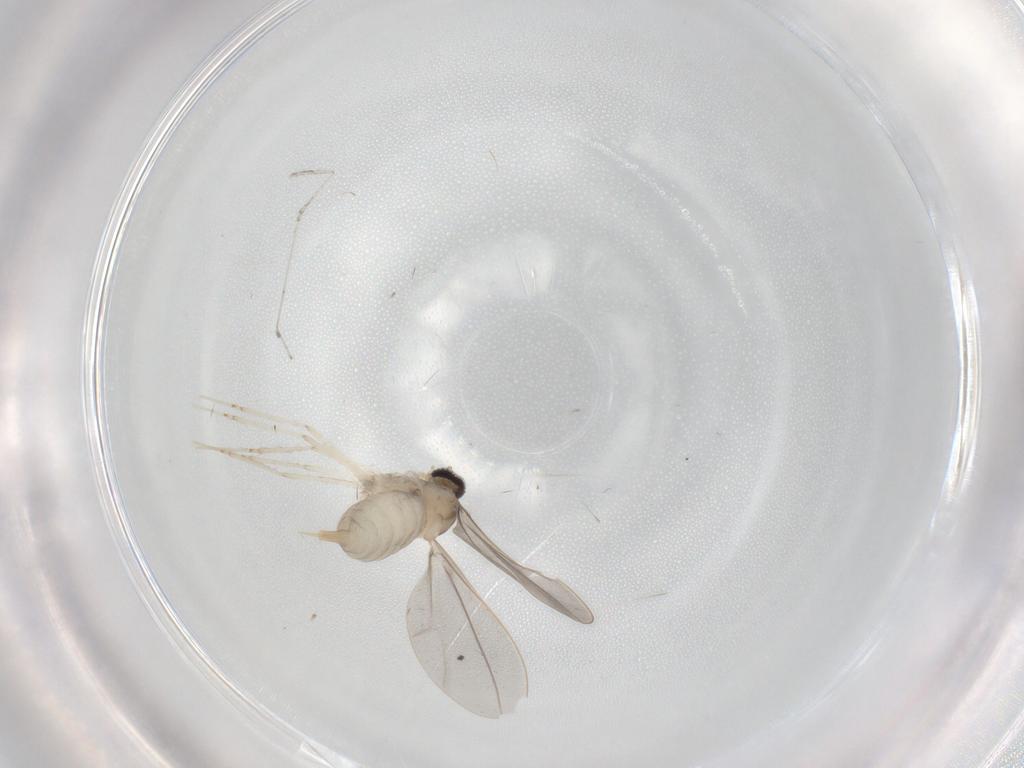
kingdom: Animalia
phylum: Arthropoda
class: Insecta
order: Diptera
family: Cecidomyiidae
